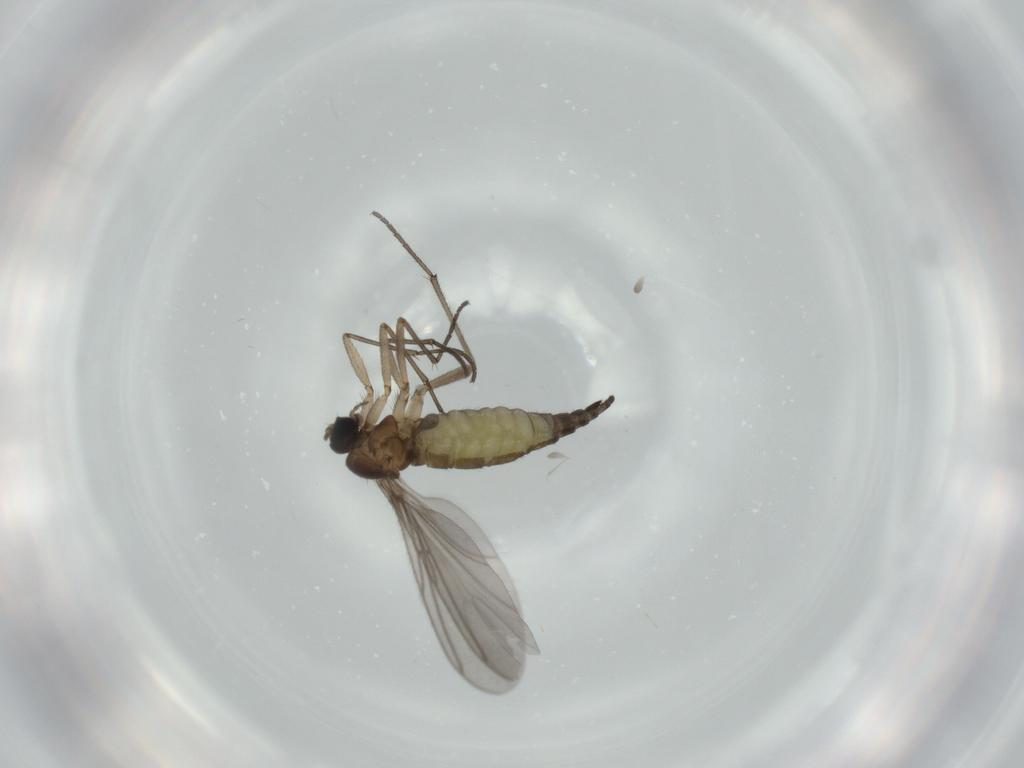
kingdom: Animalia
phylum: Arthropoda
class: Insecta
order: Diptera
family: Sciaridae
